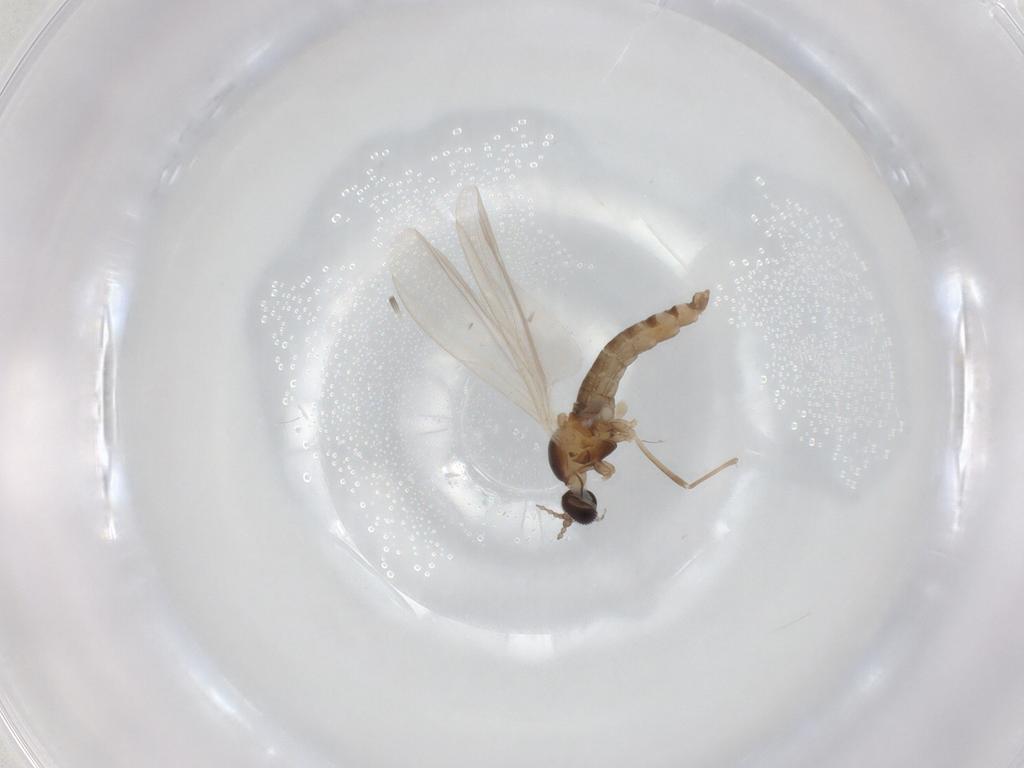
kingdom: Animalia
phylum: Arthropoda
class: Insecta
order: Diptera
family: Cecidomyiidae
